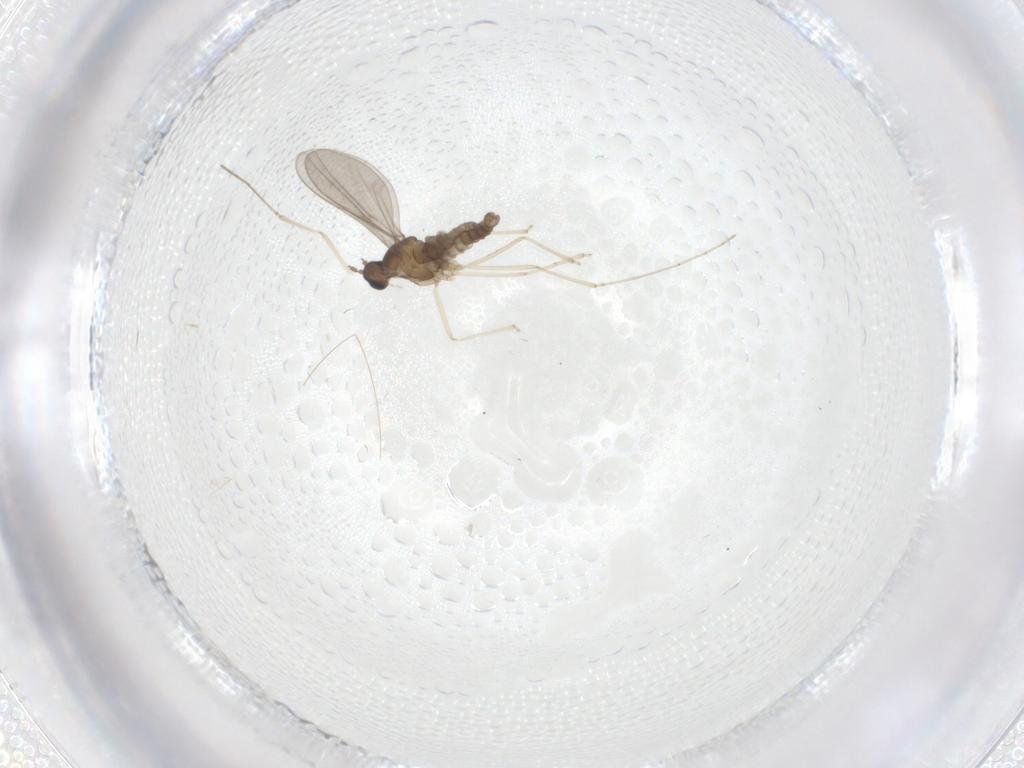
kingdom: Animalia
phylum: Arthropoda
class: Insecta
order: Diptera
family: Cecidomyiidae
